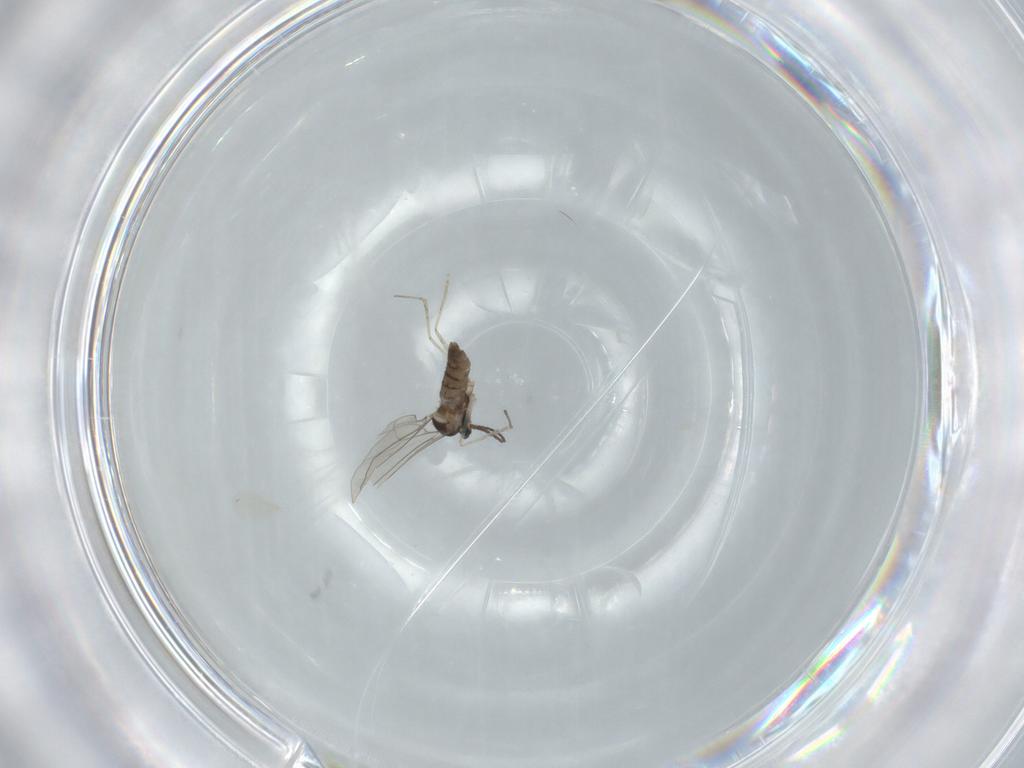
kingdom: Animalia
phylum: Arthropoda
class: Insecta
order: Diptera
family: Cecidomyiidae
